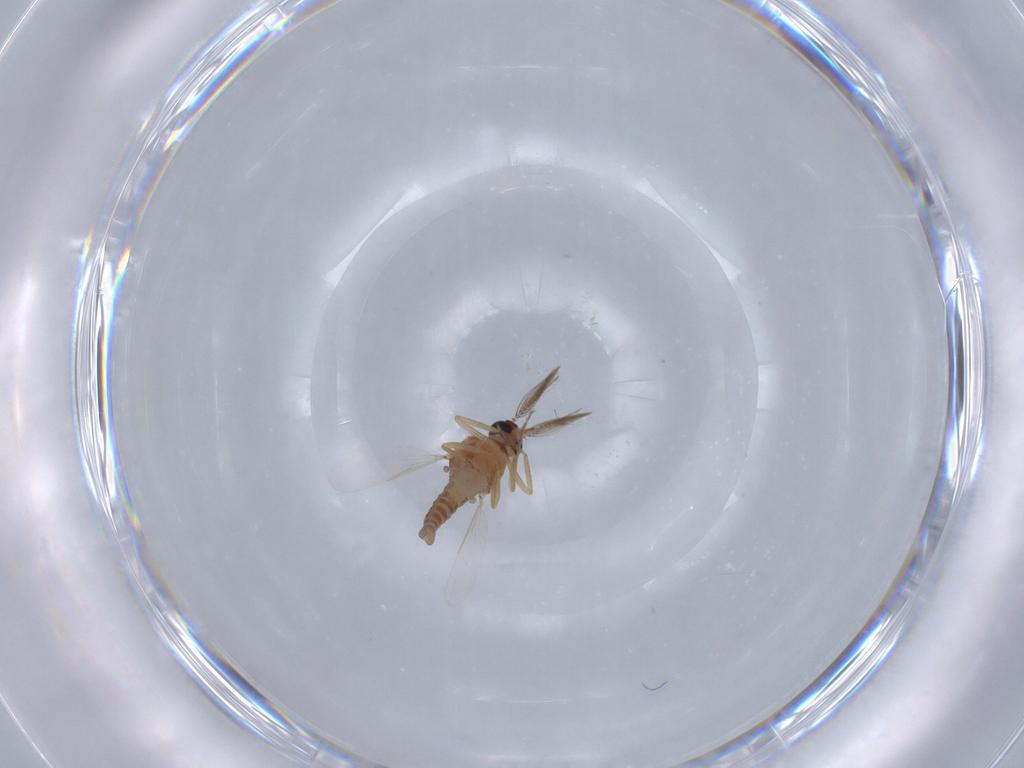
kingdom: Animalia
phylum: Arthropoda
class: Insecta
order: Diptera
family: Ceratopogonidae
